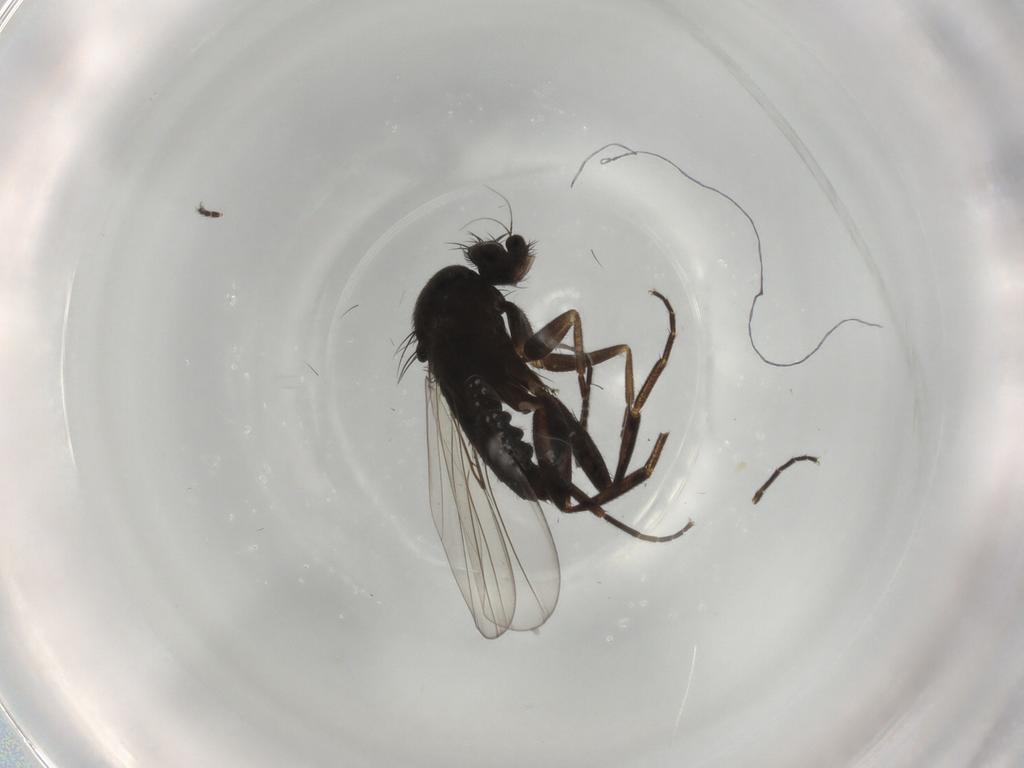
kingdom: Animalia
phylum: Arthropoda
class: Insecta
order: Diptera
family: Phoridae
